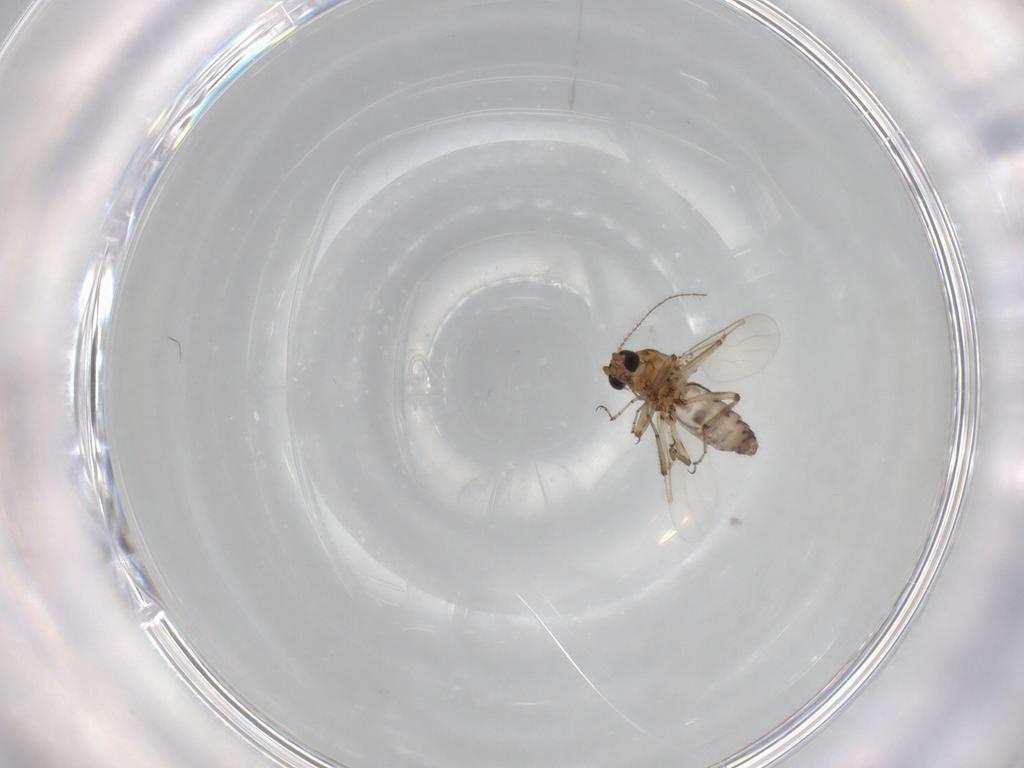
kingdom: Animalia
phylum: Arthropoda
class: Insecta
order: Diptera
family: Ceratopogonidae
